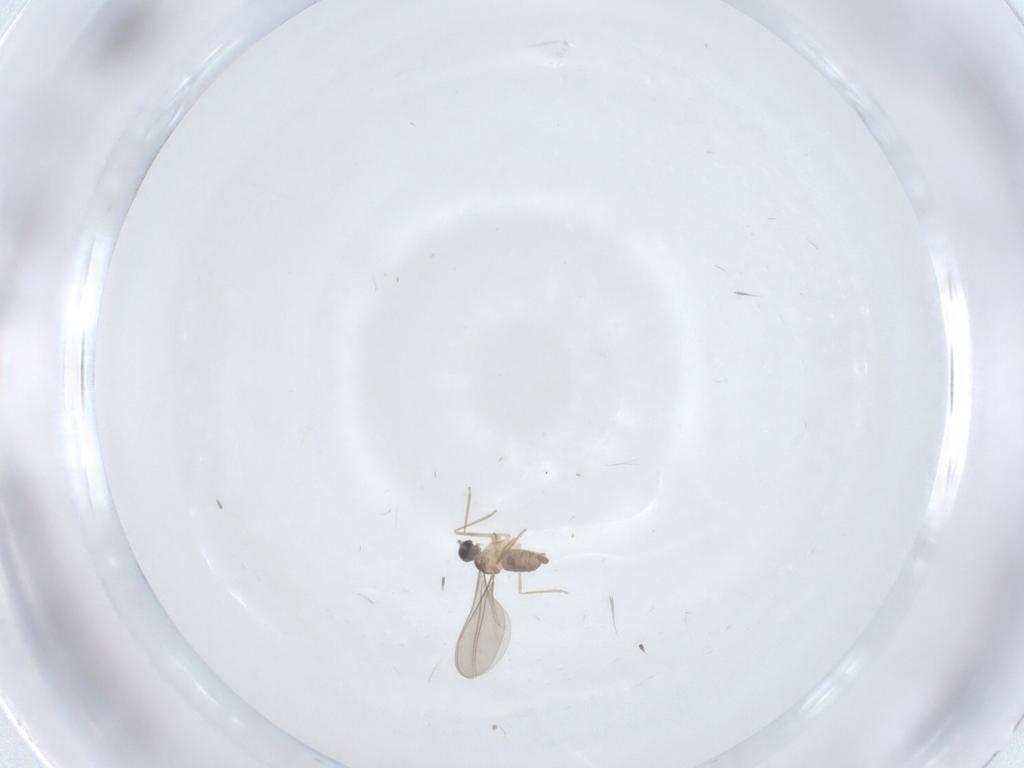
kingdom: Animalia
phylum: Arthropoda
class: Insecta
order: Diptera
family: Cecidomyiidae
